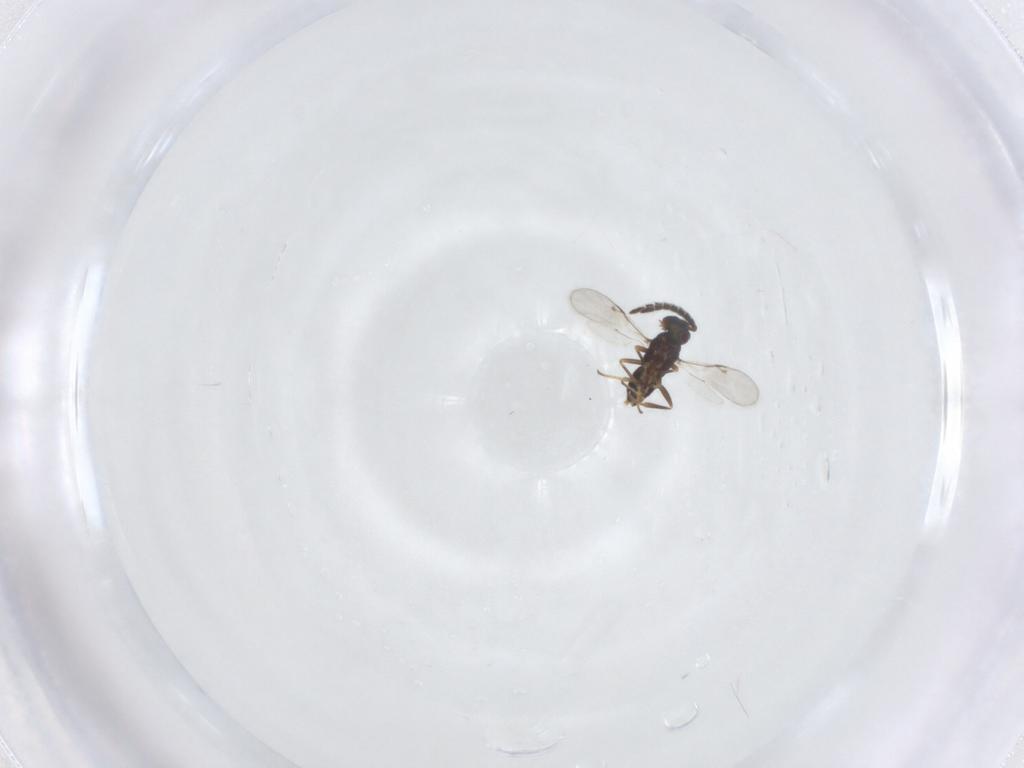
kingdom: Animalia
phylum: Arthropoda
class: Insecta
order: Hymenoptera
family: Encyrtidae
